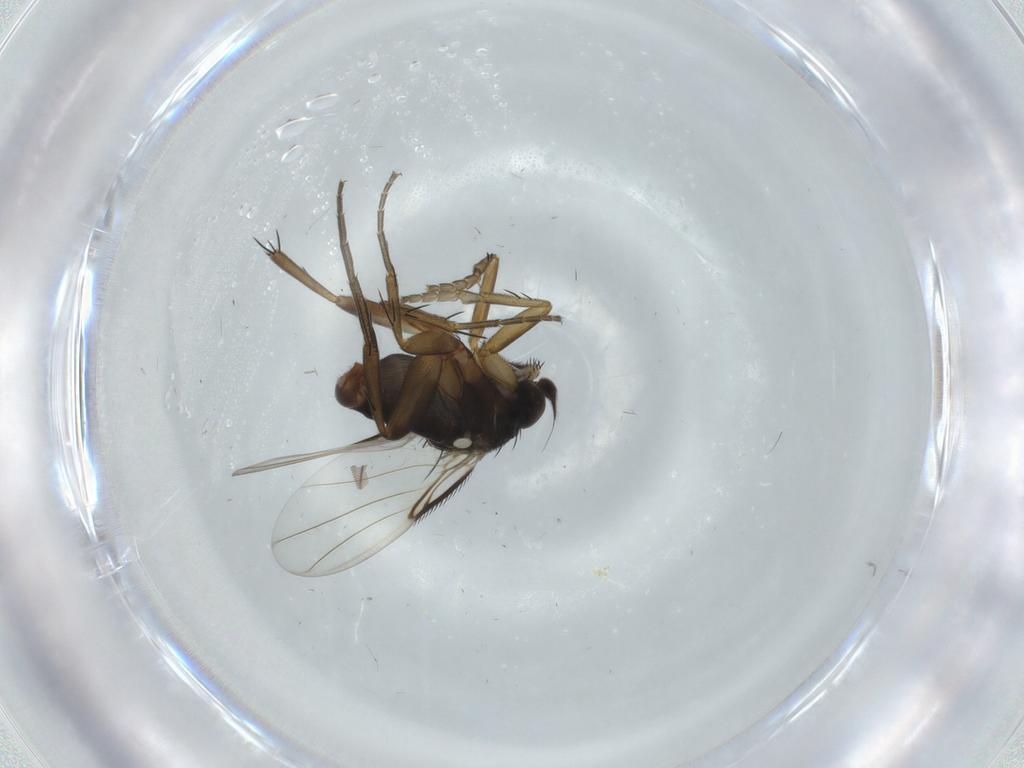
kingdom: Animalia
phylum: Arthropoda
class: Insecta
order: Diptera
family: Phoridae
